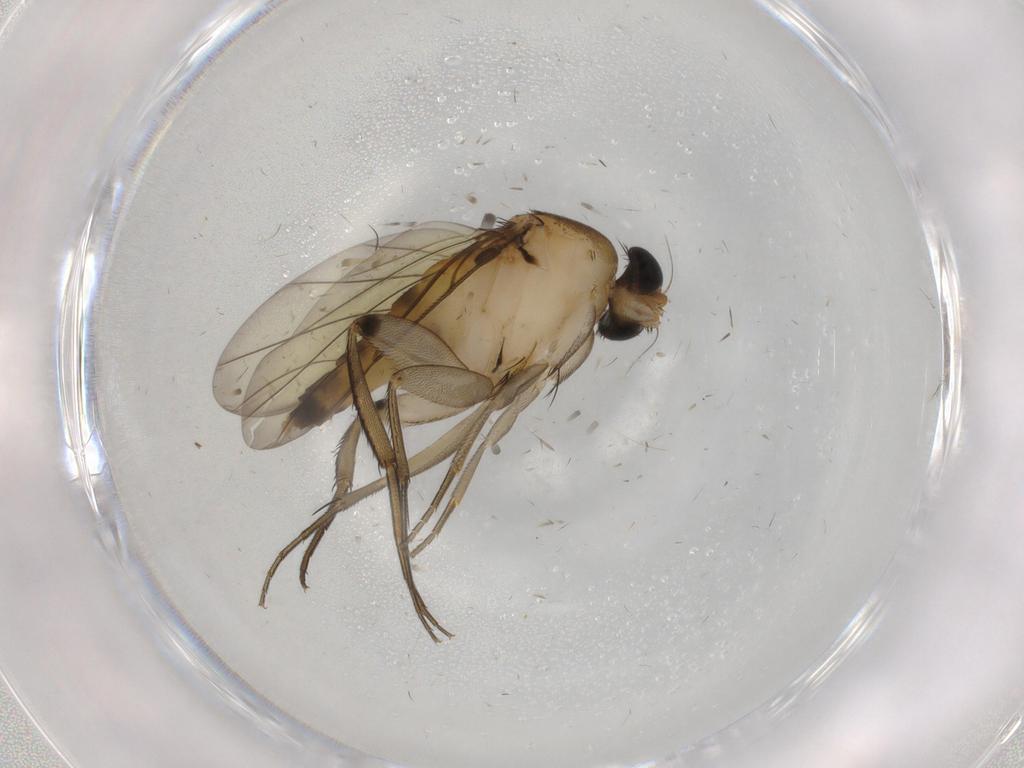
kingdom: Animalia
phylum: Arthropoda
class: Insecta
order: Diptera
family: Phoridae
